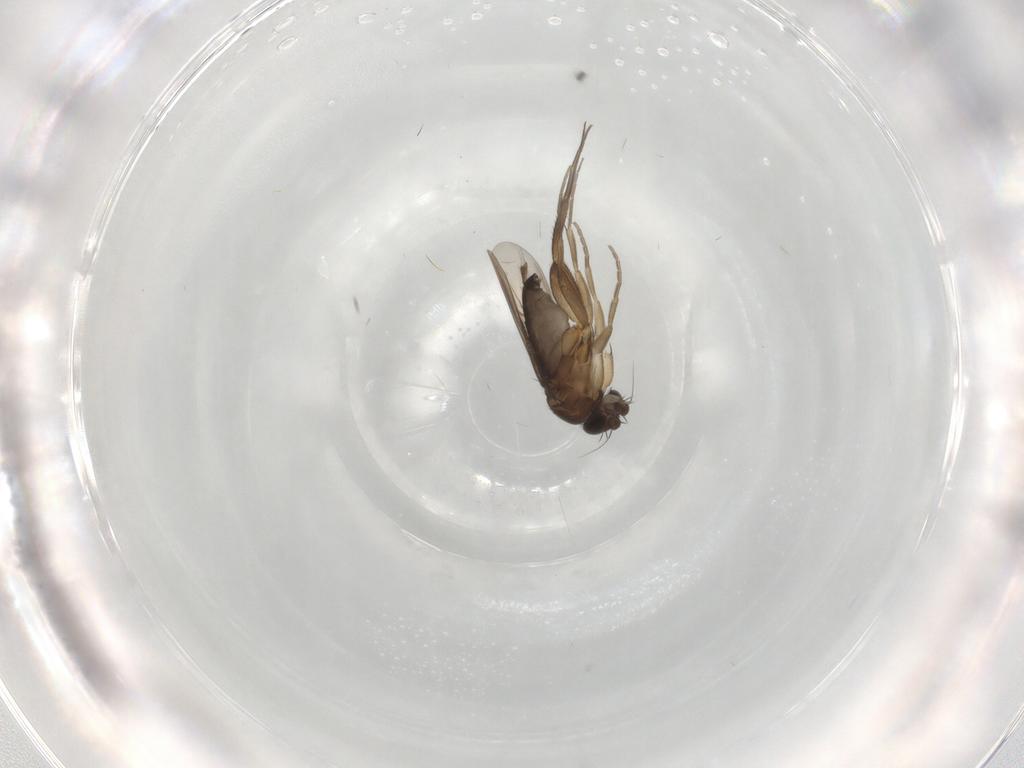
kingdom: Animalia
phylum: Arthropoda
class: Insecta
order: Diptera
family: Phoridae
